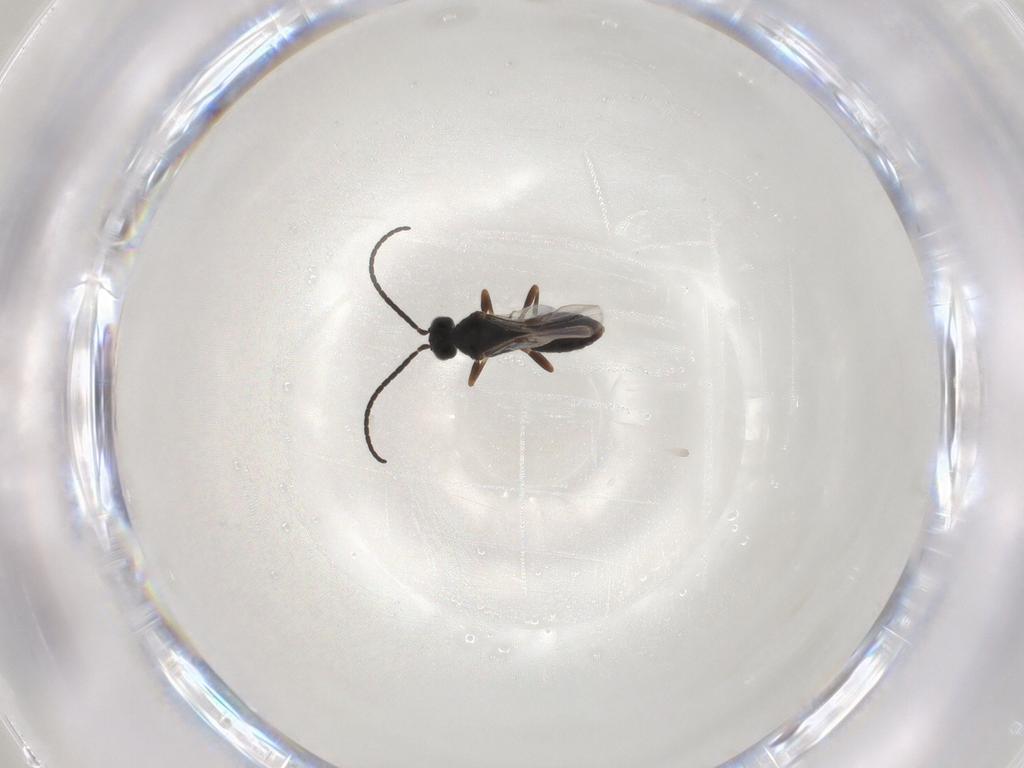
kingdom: Animalia
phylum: Arthropoda
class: Insecta
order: Hymenoptera
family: Braconidae
